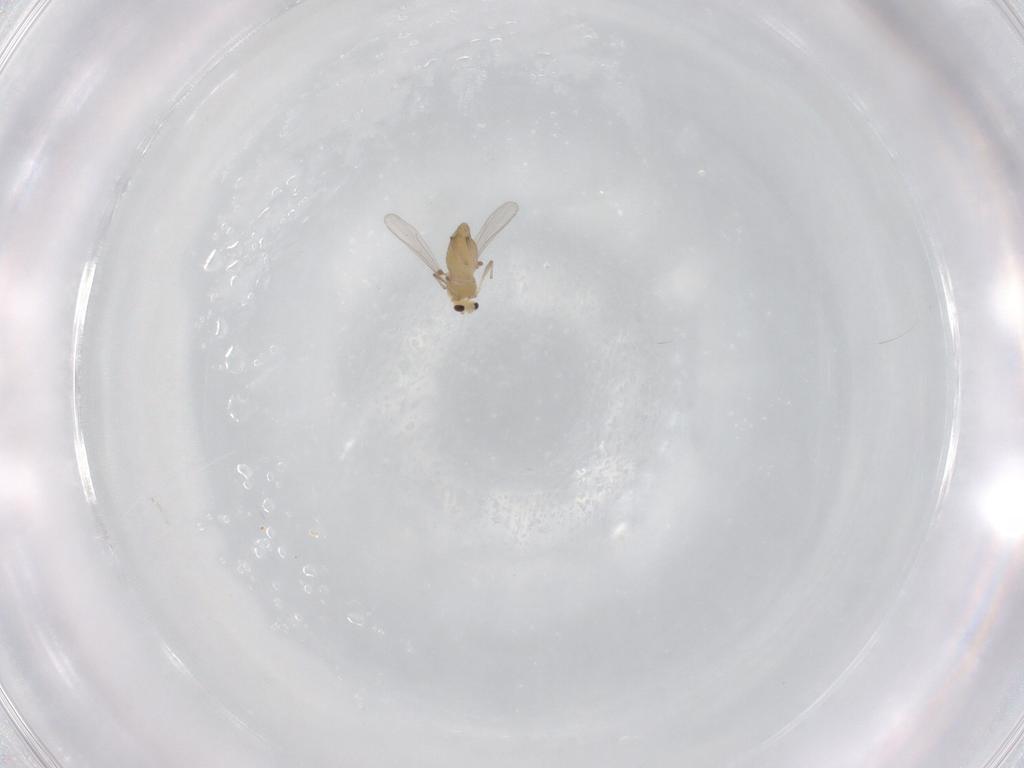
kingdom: Animalia
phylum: Arthropoda
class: Insecta
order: Diptera
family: Chironomidae
